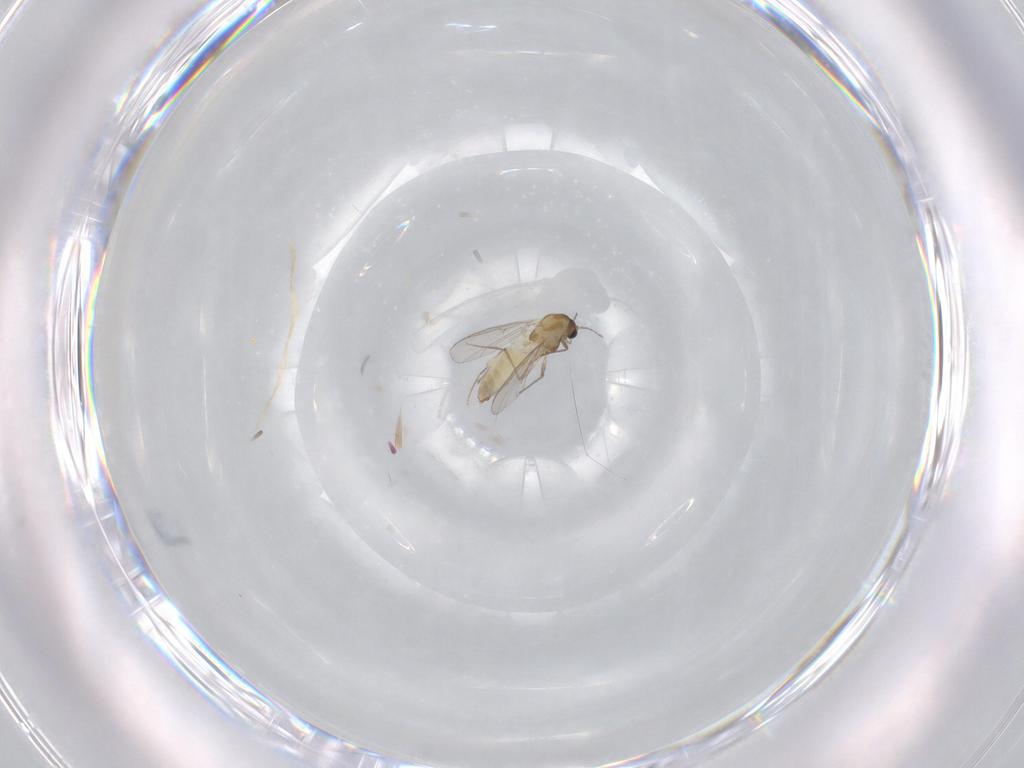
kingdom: Animalia
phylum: Arthropoda
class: Insecta
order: Diptera
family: Chironomidae
